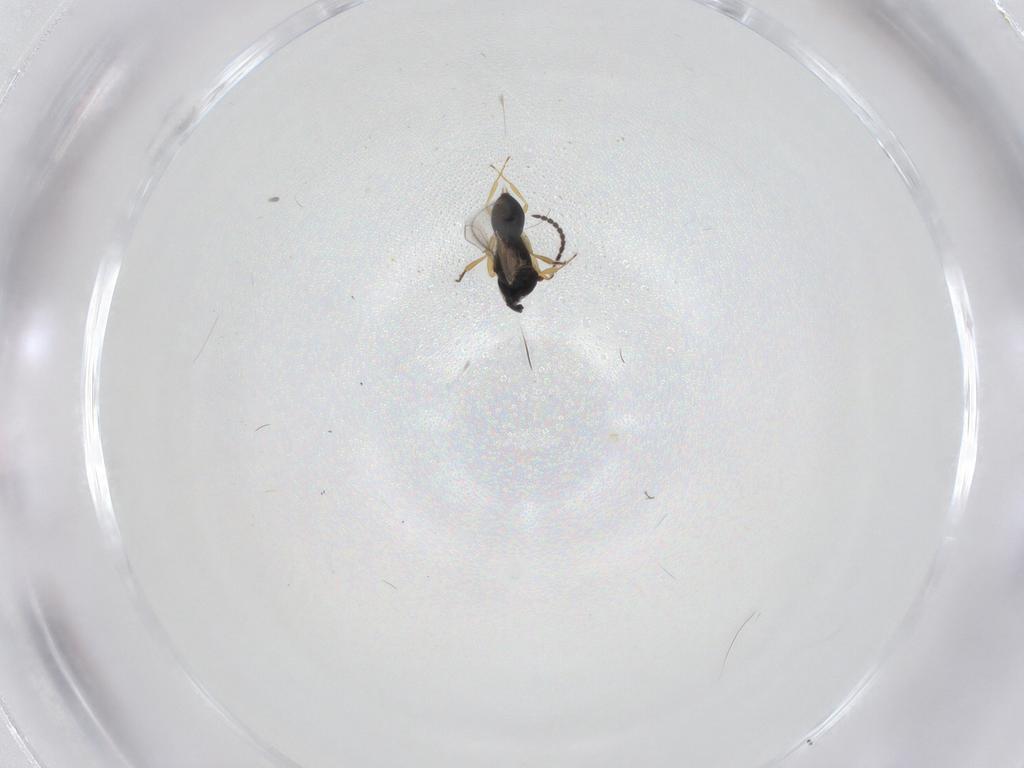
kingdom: Animalia
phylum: Arthropoda
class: Insecta
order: Hymenoptera
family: Scelionidae
